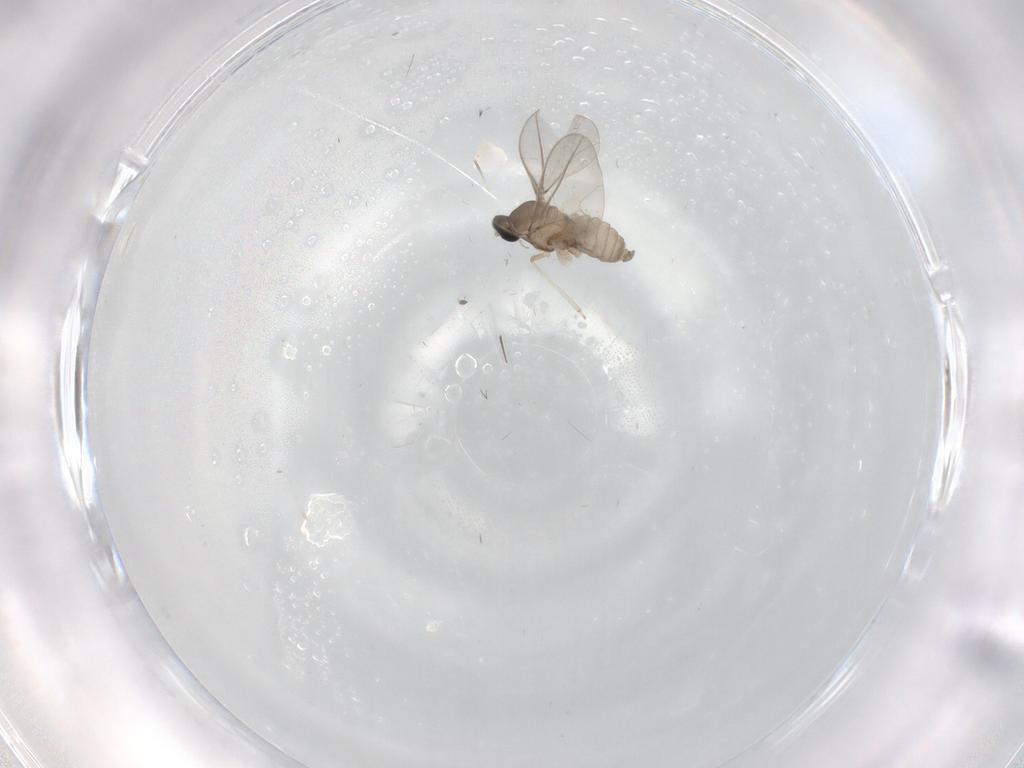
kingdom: Animalia
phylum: Arthropoda
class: Insecta
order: Diptera
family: Cecidomyiidae
